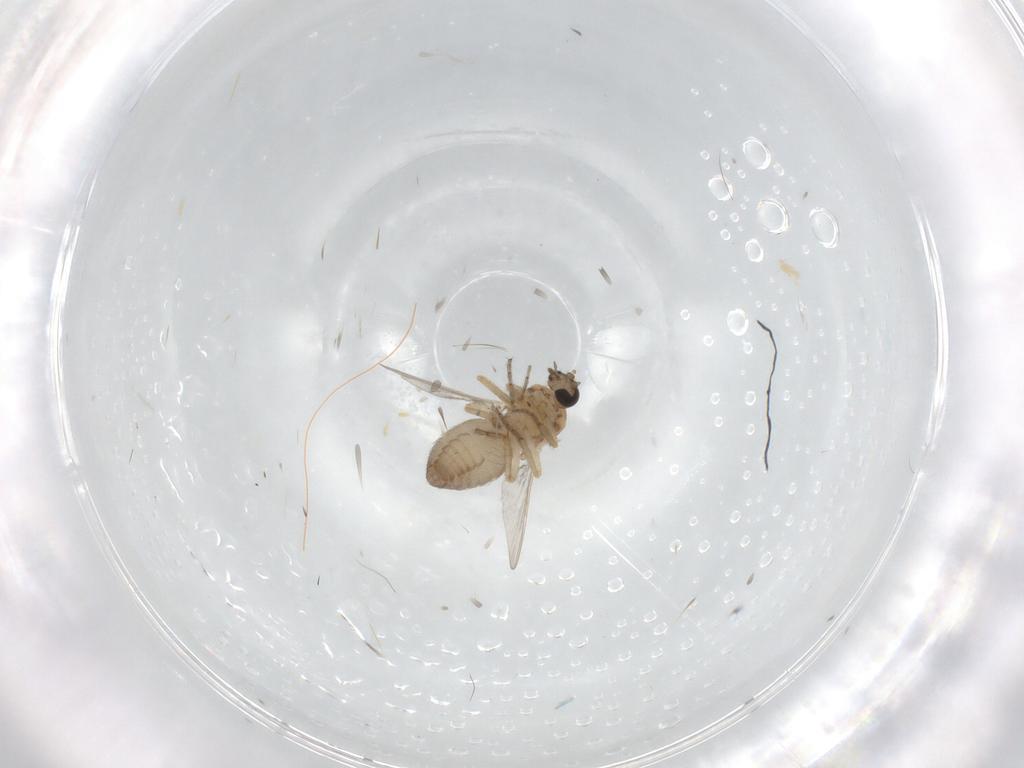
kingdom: Animalia
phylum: Arthropoda
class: Insecta
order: Diptera
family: Ceratopogonidae
